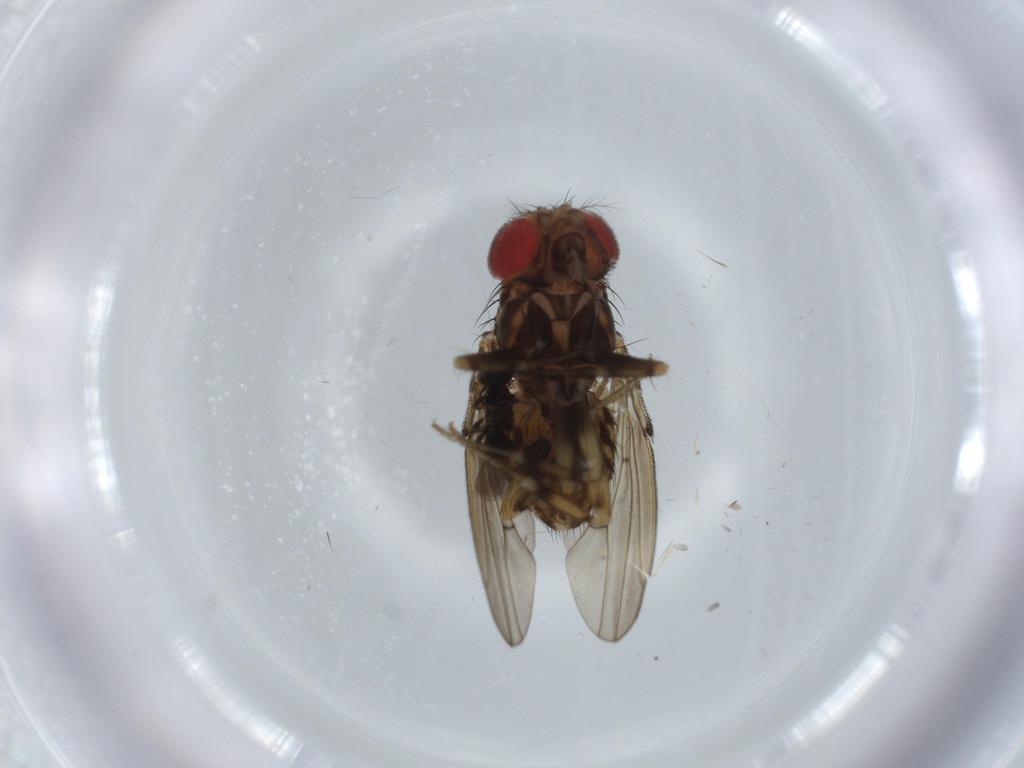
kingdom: Animalia
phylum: Arthropoda
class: Insecta
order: Diptera
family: Drosophilidae
